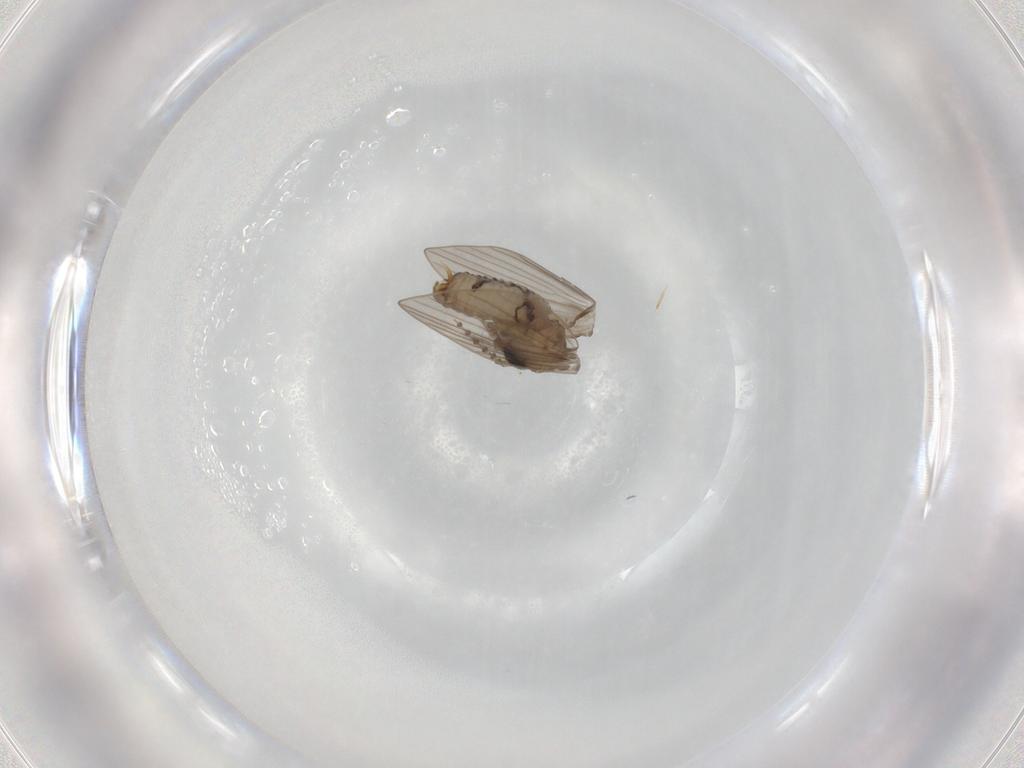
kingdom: Animalia
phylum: Arthropoda
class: Insecta
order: Diptera
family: Psychodidae
